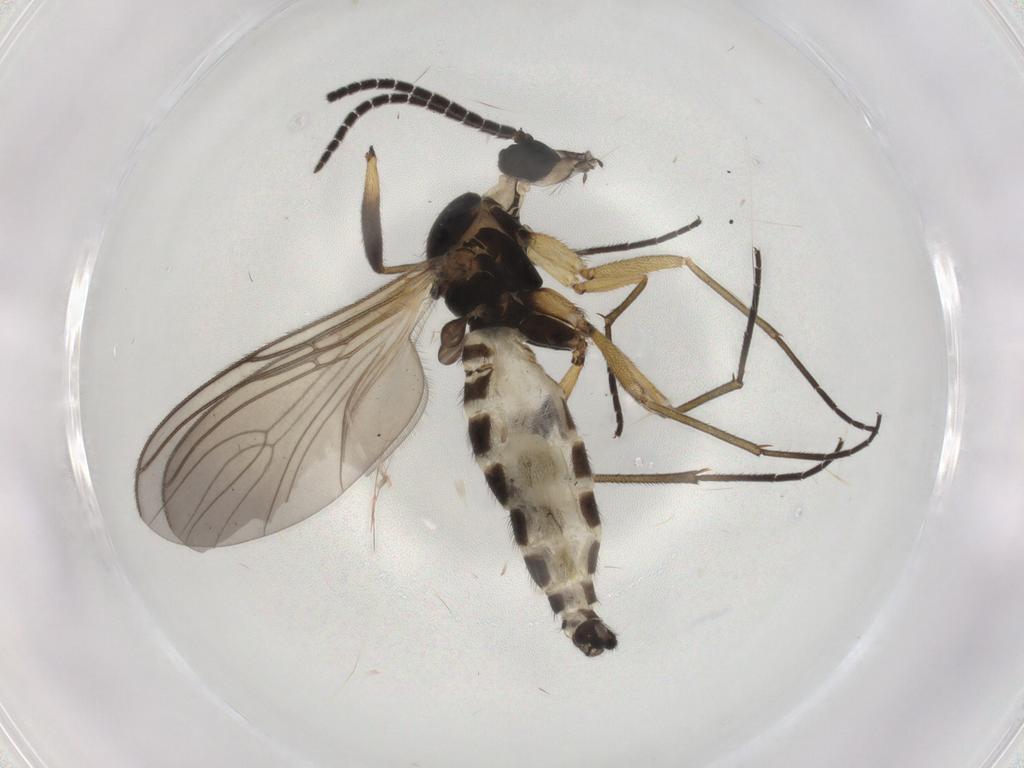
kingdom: Animalia
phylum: Arthropoda
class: Insecta
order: Diptera
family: Sciaridae
